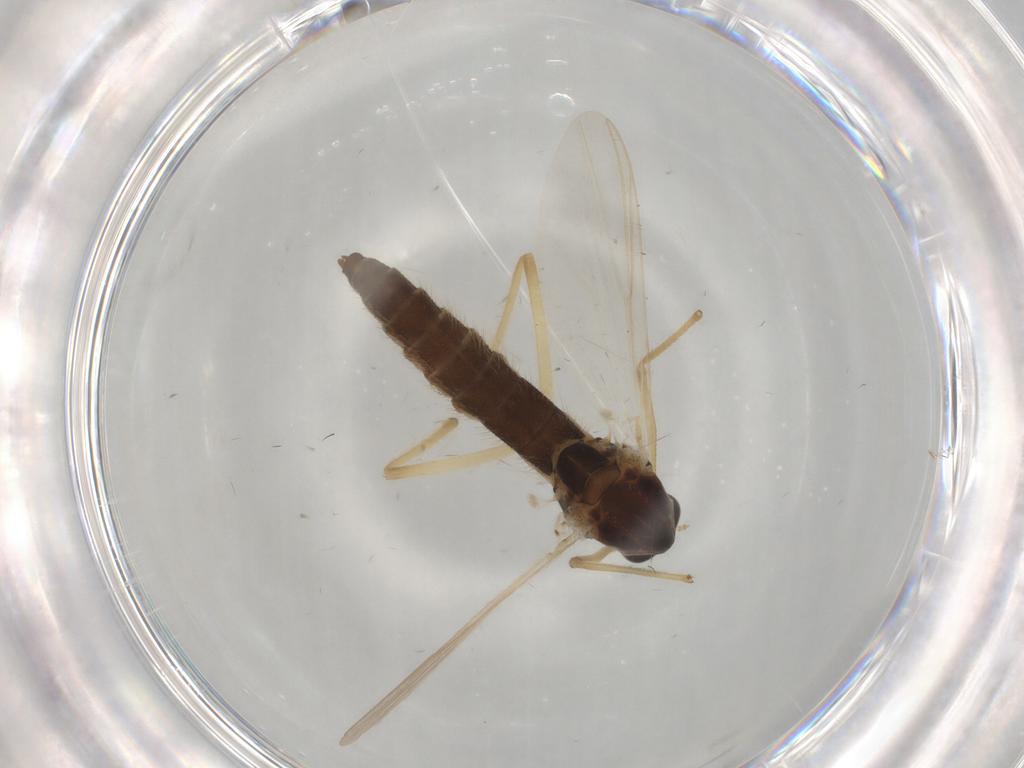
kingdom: Animalia
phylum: Arthropoda
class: Insecta
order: Diptera
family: Chironomidae
